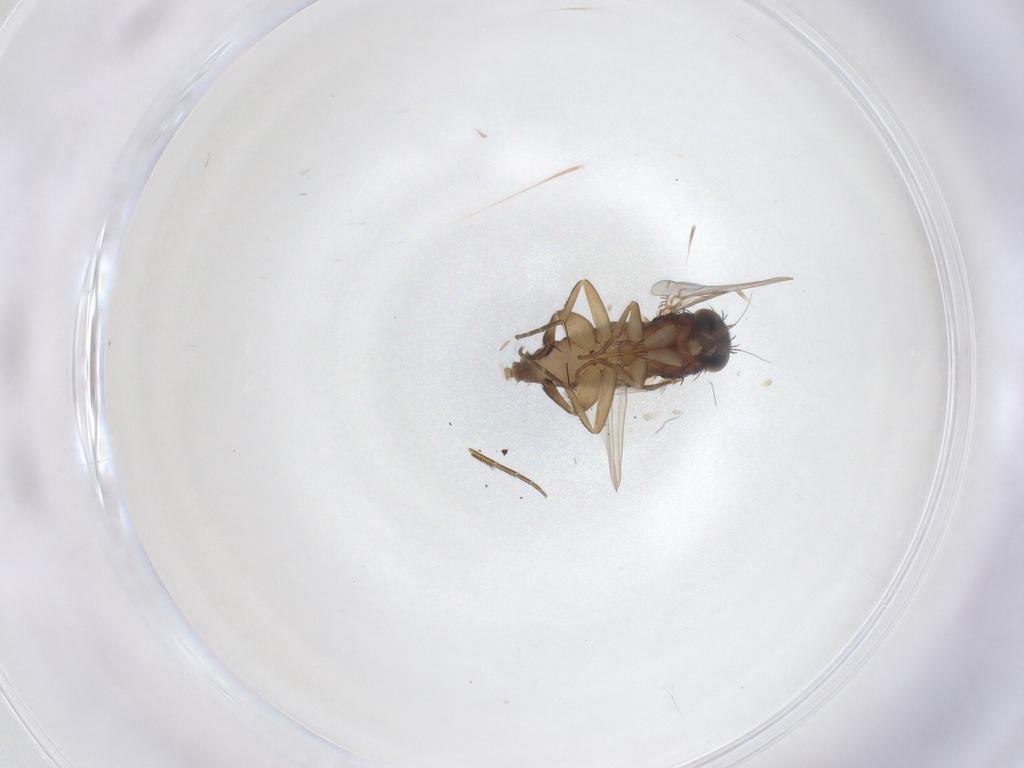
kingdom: Animalia
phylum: Arthropoda
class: Insecta
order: Diptera
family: Phoridae
